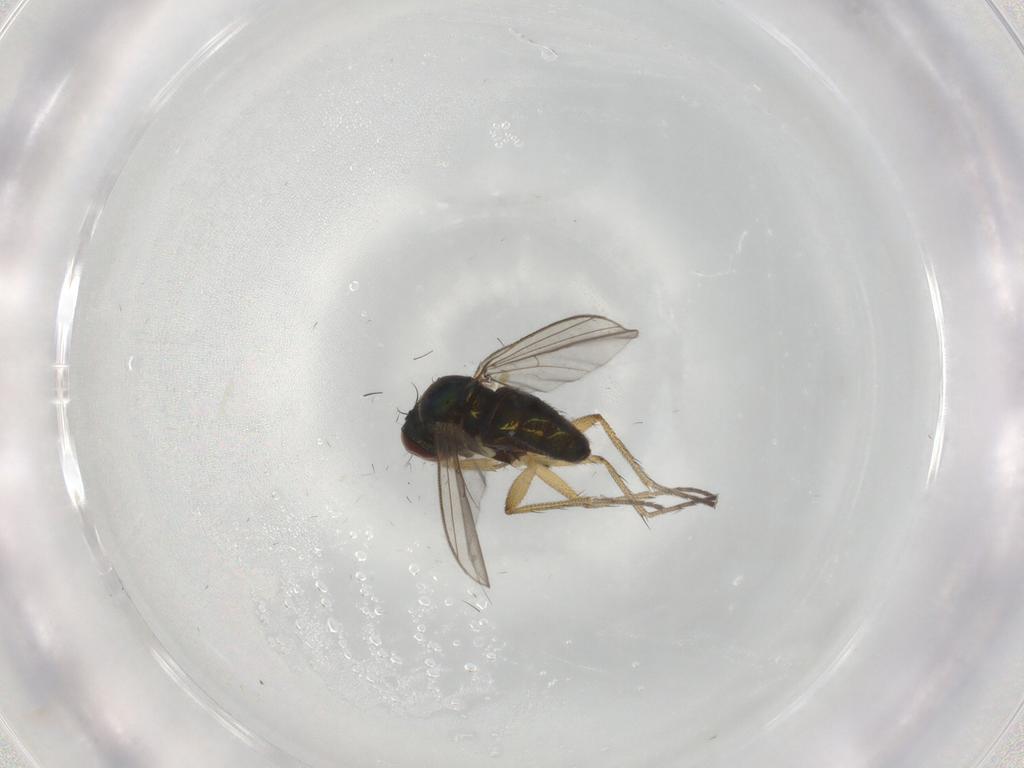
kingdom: Animalia
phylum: Arthropoda
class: Insecta
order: Diptera
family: Dolichopodidae
